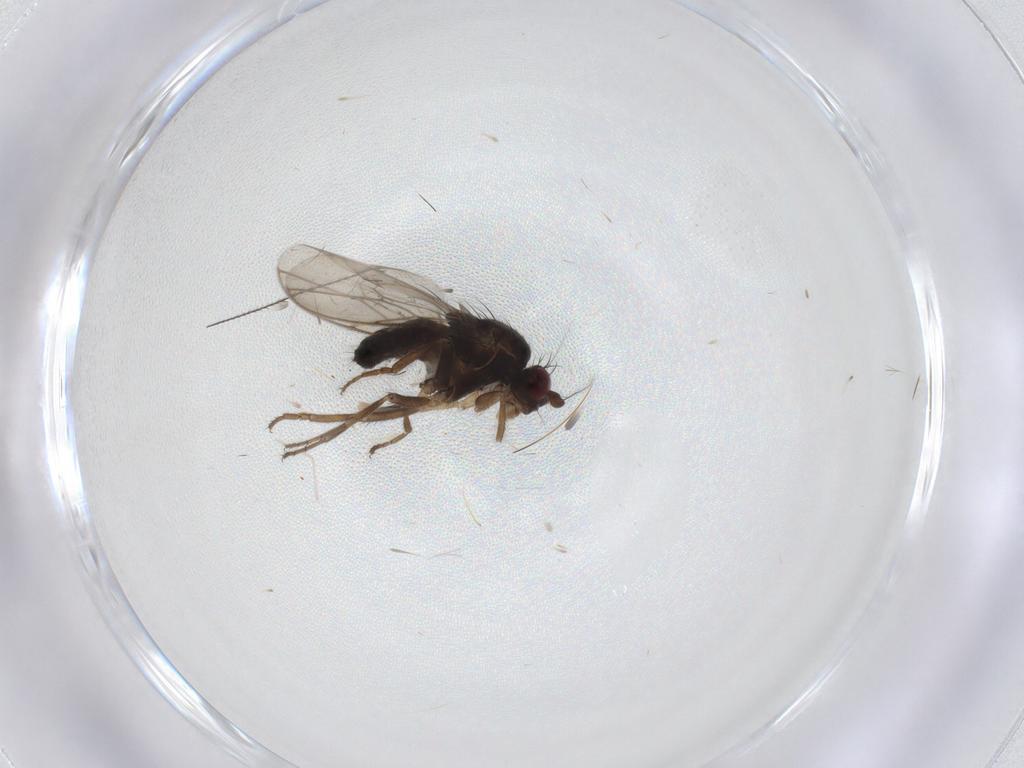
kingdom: Animalia
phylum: Arthropoda
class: Insecta
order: Diptera
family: Sphaeroceridae
